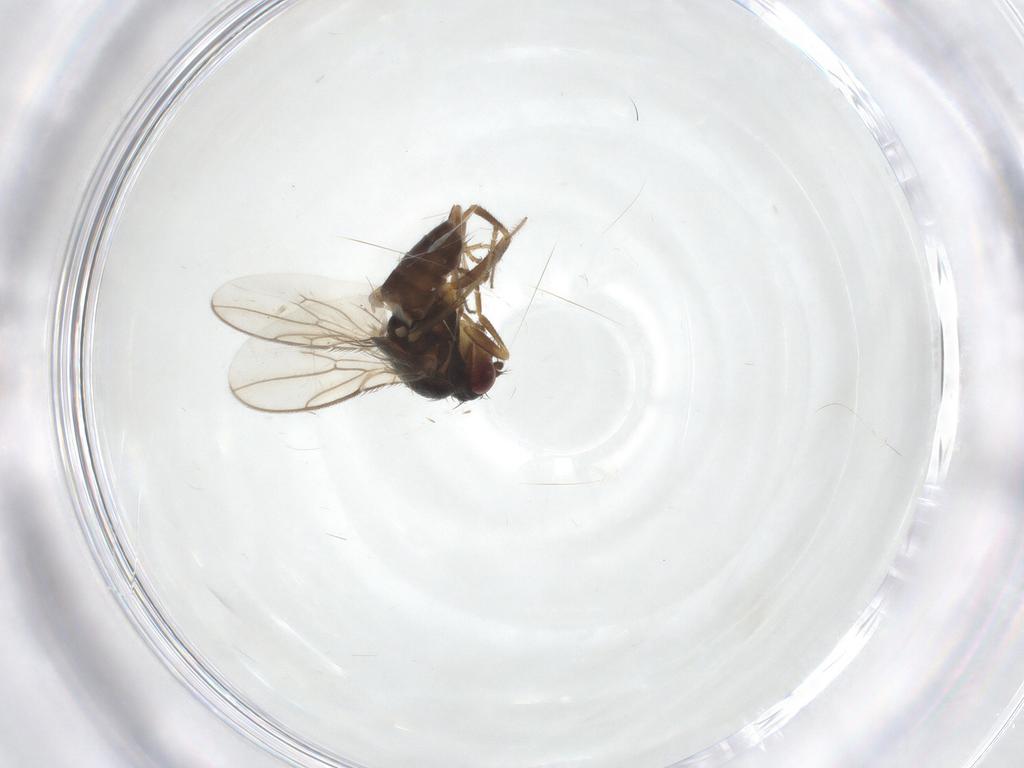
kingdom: Animalia
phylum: Arthropoda
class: Insecta
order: Diptera
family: Sphaeroceridae
